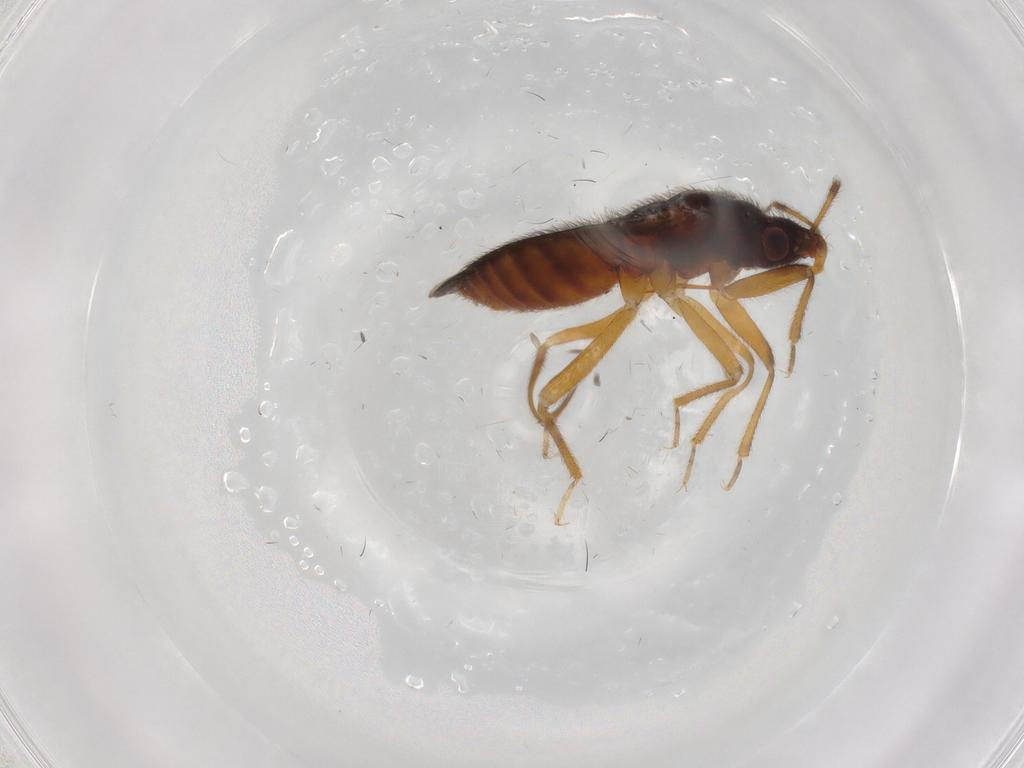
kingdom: Animalia
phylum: Arthropoda
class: Insecta
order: Hemiptera
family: Anthocoridae
